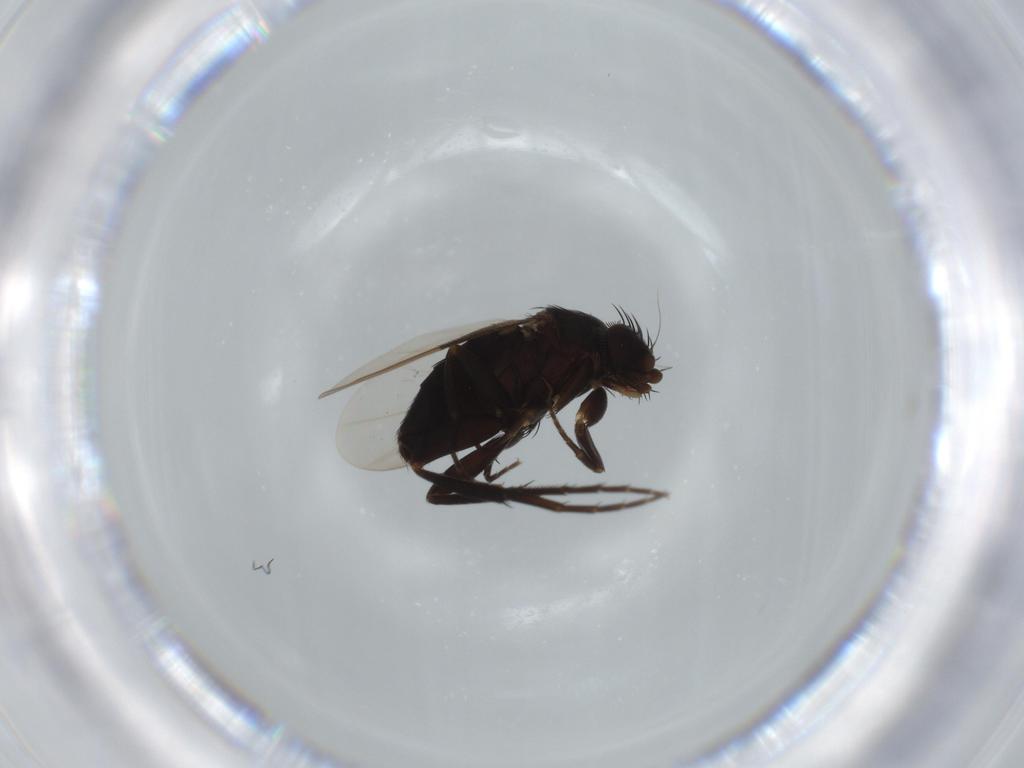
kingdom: Animalia
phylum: Arthropoda
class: Insecta
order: Diptera
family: Phoridae
